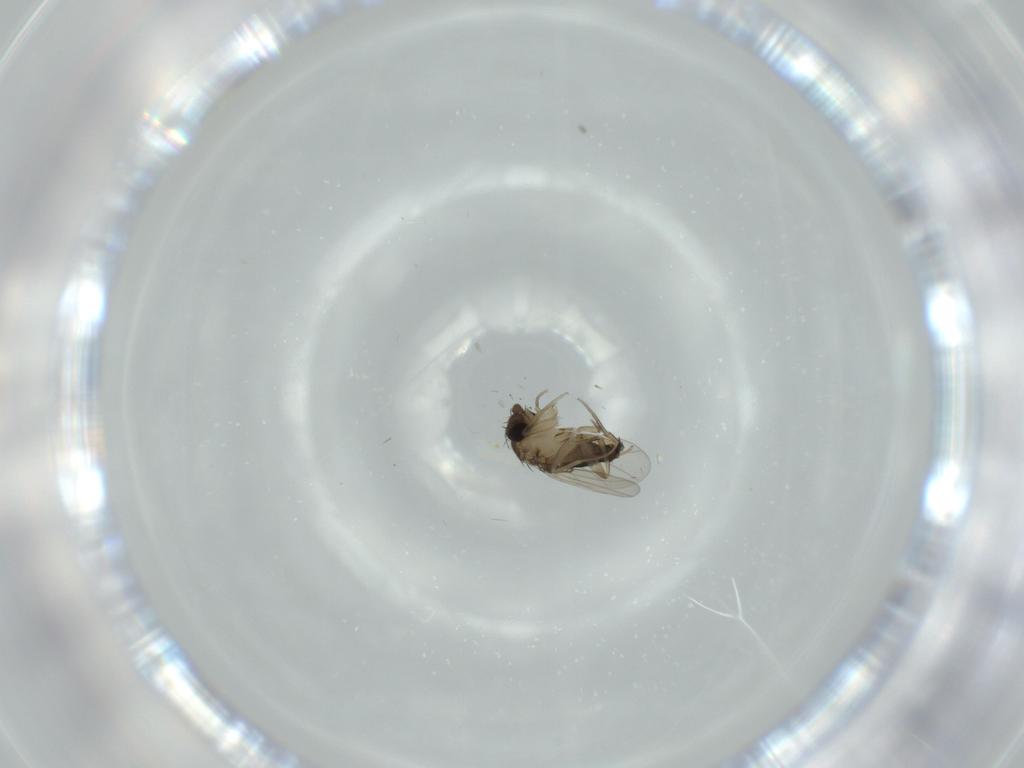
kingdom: Animalia
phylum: Arthropoda
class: Insecta
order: Diptera
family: Phoridae
